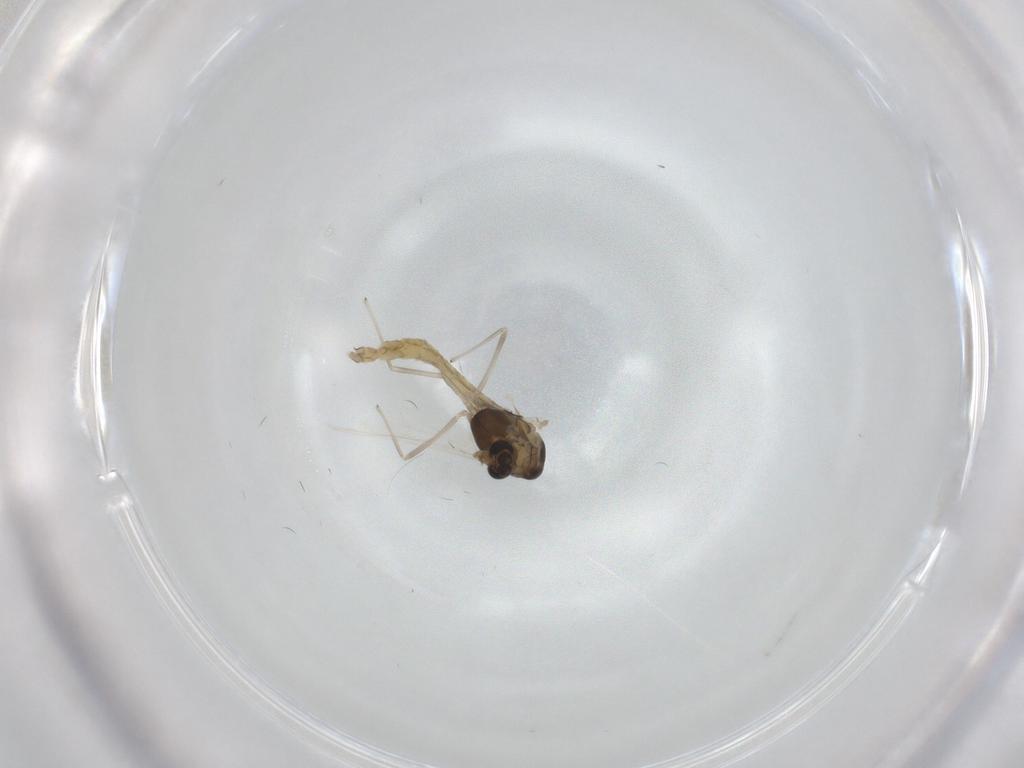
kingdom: Animalia
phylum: Arthropoda
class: Insecta
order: Diptera
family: Chironomidae
